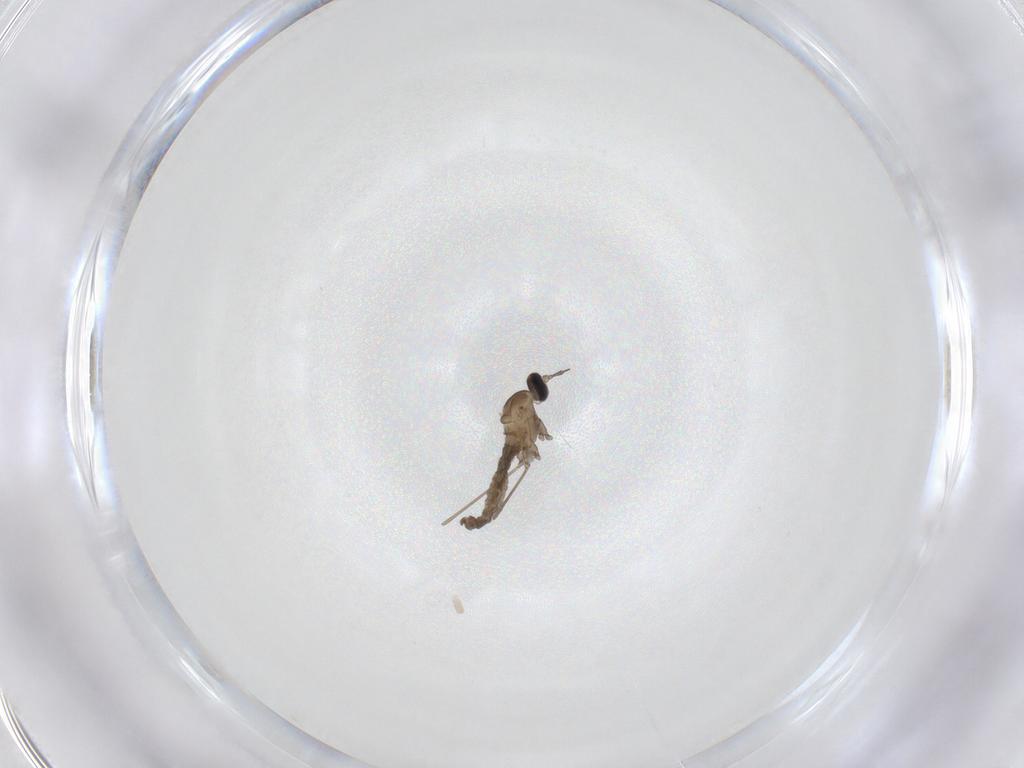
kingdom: Animalia
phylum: Arthropoda
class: Insecta
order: Diptera
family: Cecidomyiidae
